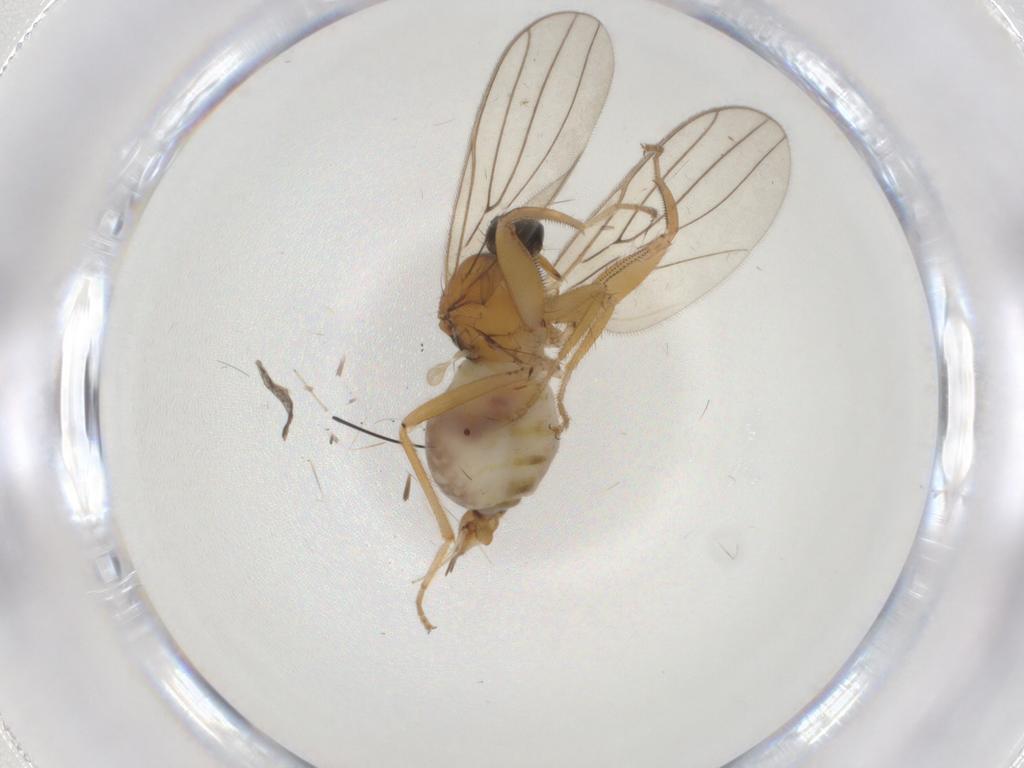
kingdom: Animalia
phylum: Arthropoda
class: Insecta
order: Diptera
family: Hybotidae
